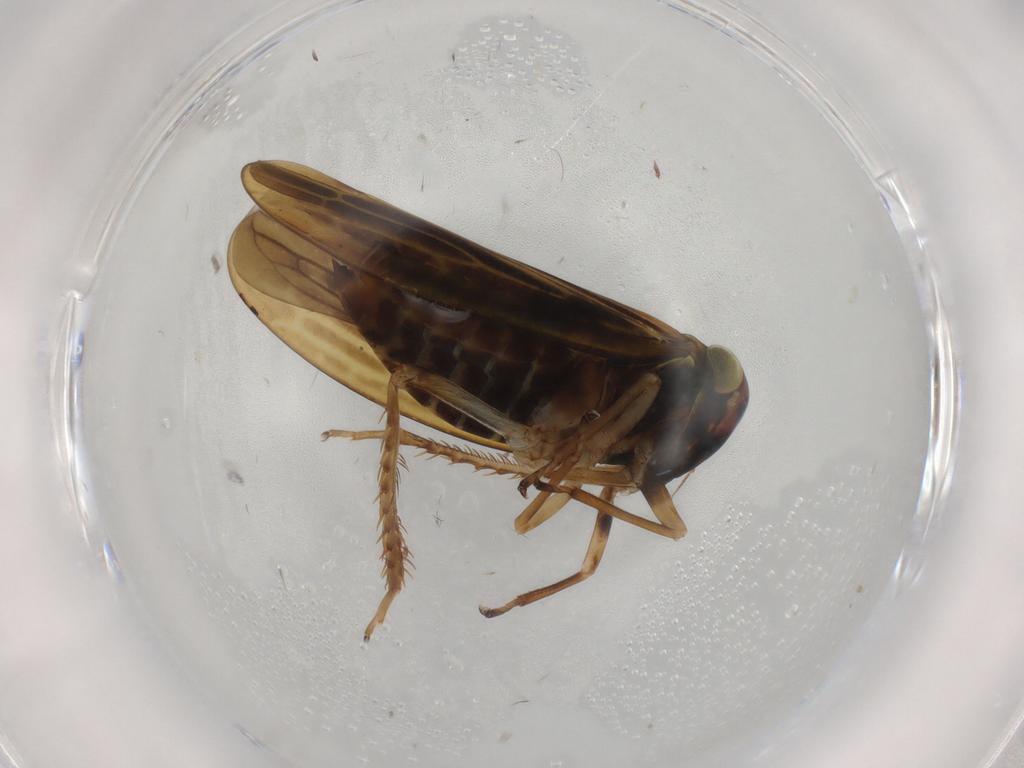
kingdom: Animalia
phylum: Arthropoda
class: Insecta
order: Hemiptera
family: Cicadellidae
